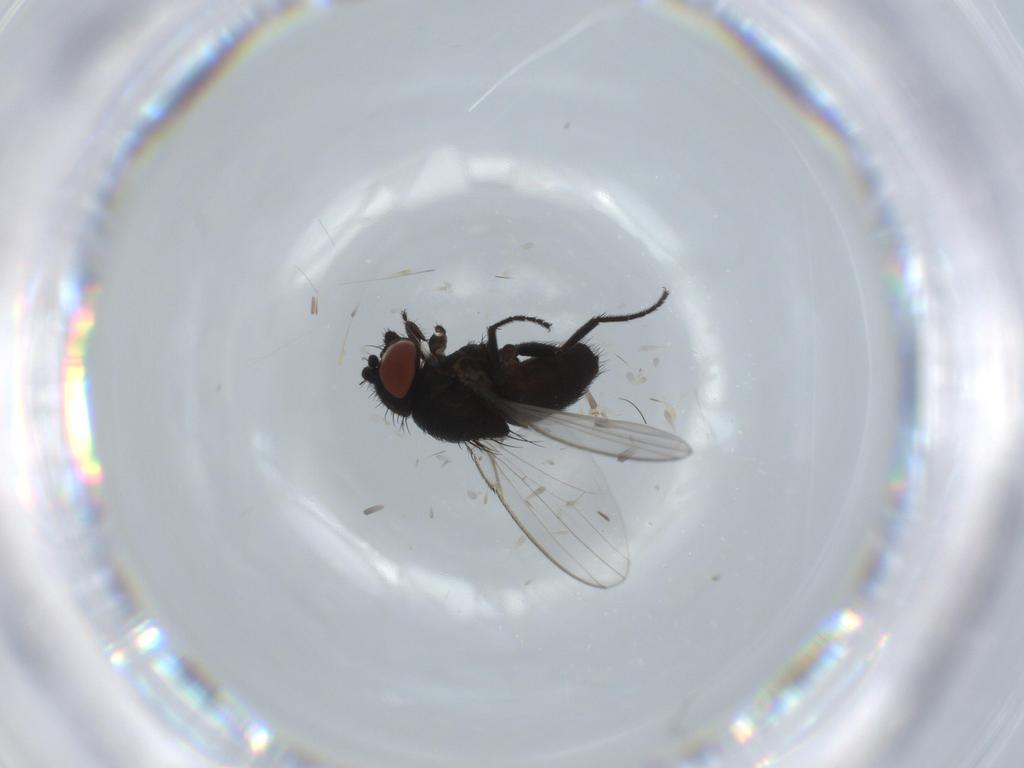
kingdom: Animalia
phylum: Arthropoda
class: Insecta
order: Diptera
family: Milichiidae
